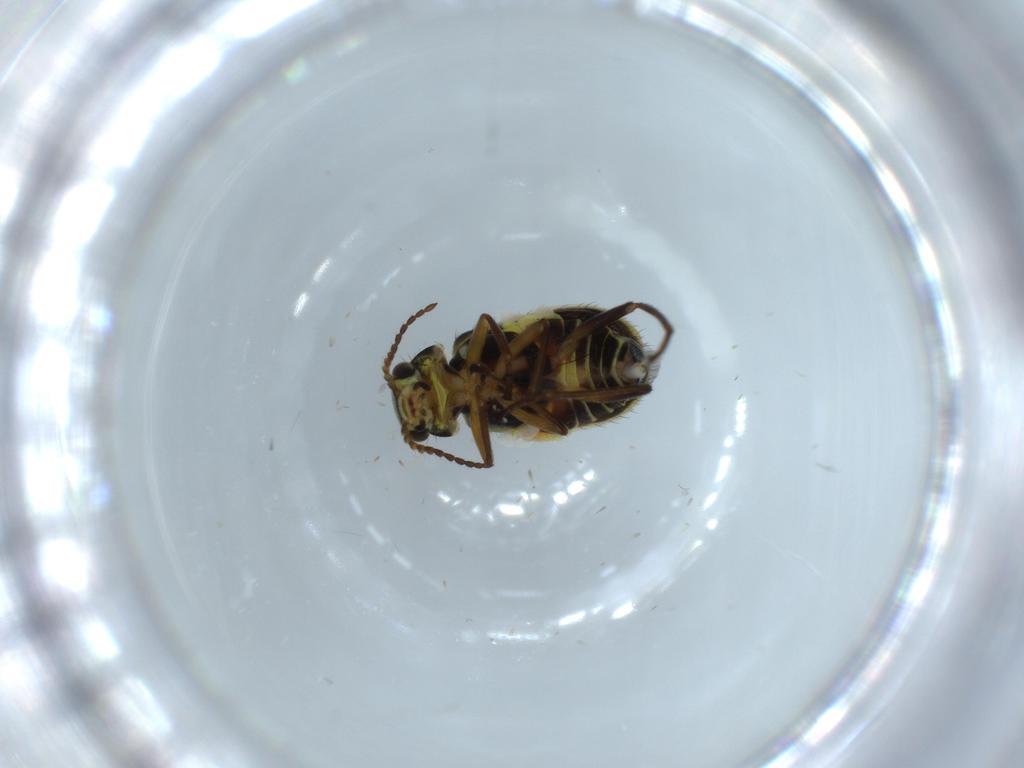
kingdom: Animalia
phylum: Arthropoda
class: Insecta
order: Coleoptera
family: Melyridae
